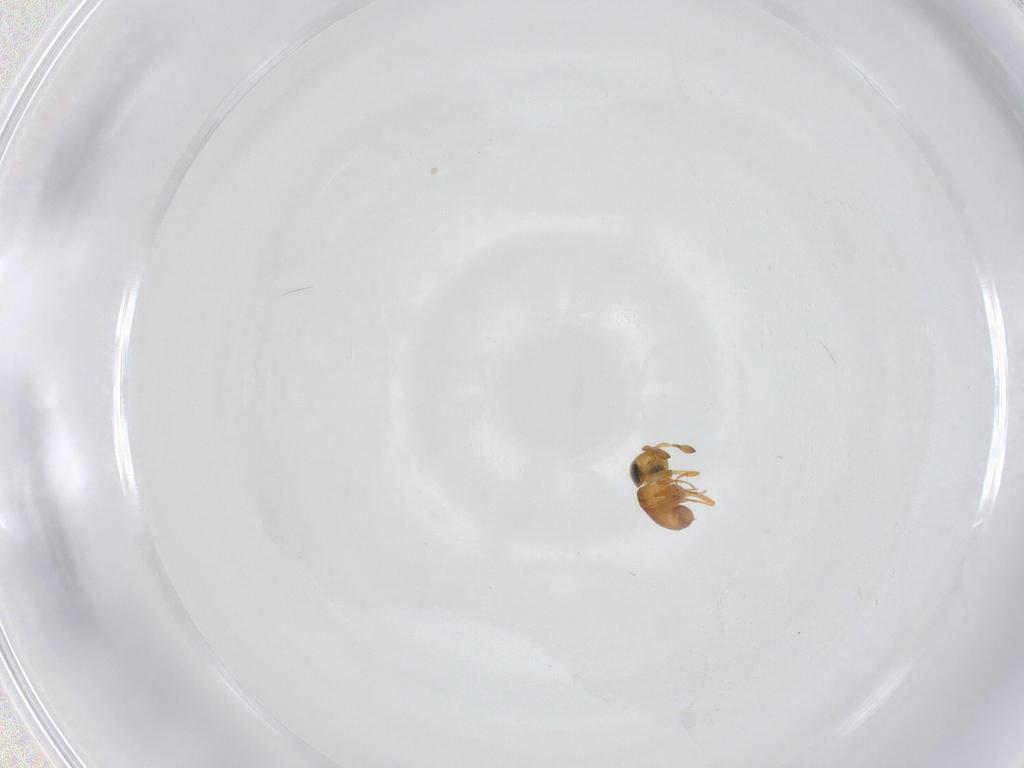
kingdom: Animalia
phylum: Arthropoda
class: Insecta
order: Hymenoptera
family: Scelionidae
